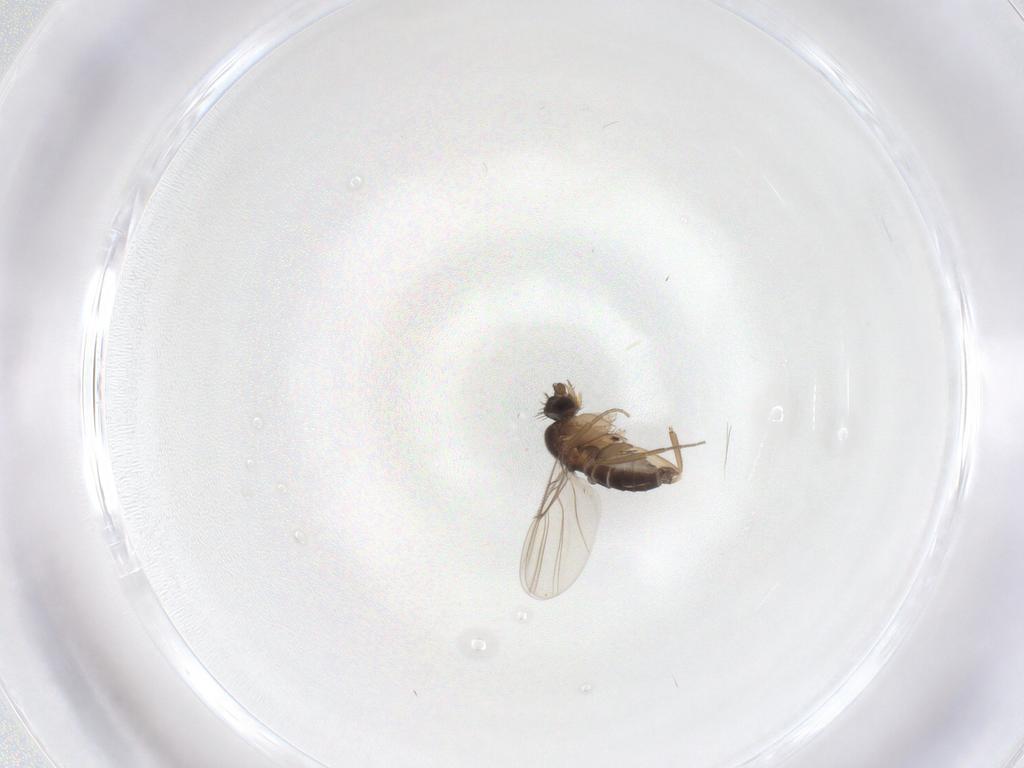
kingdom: Animalia
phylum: Arthropoda
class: Insecta
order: Diptera
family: Phoridae
